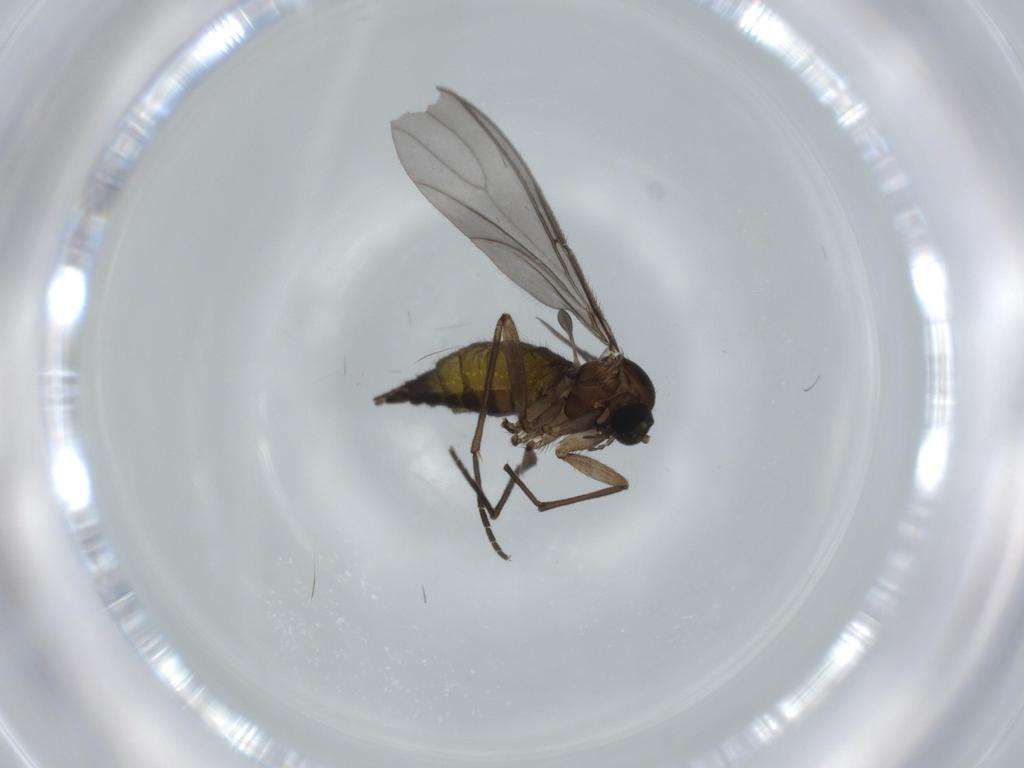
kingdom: Animalia
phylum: Arthropoda
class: Insecta
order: Diptera
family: Sciaridae
